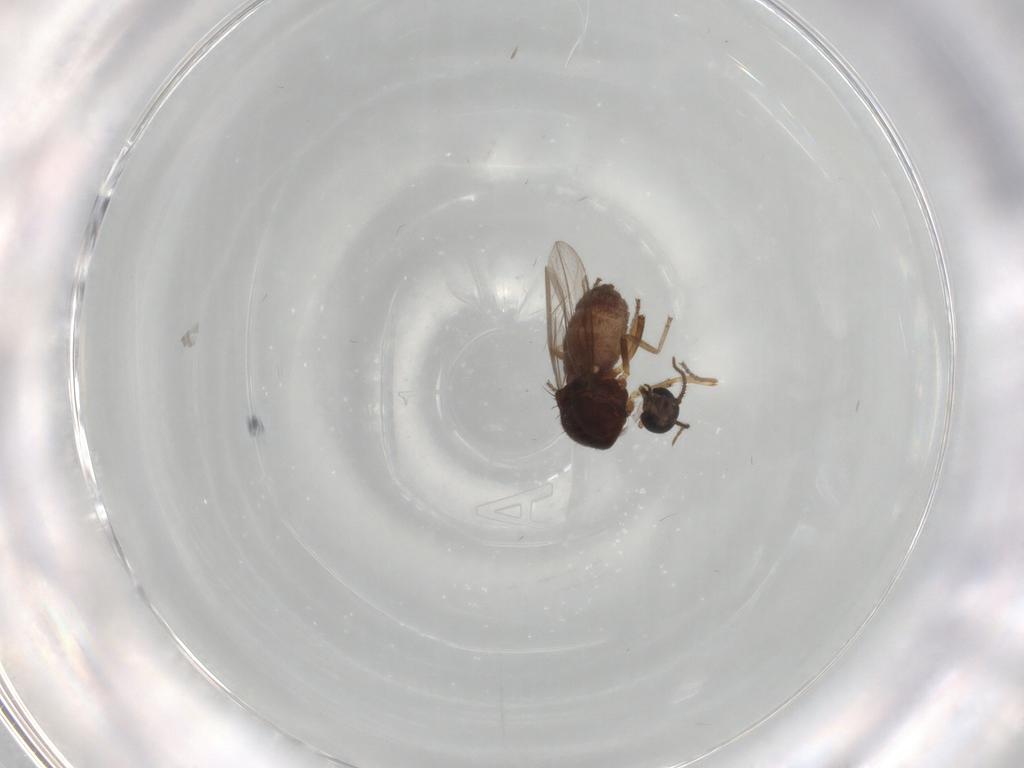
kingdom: Animalia
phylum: Arthropoda
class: Insecta
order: Diptera
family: Ceratopogonidae
